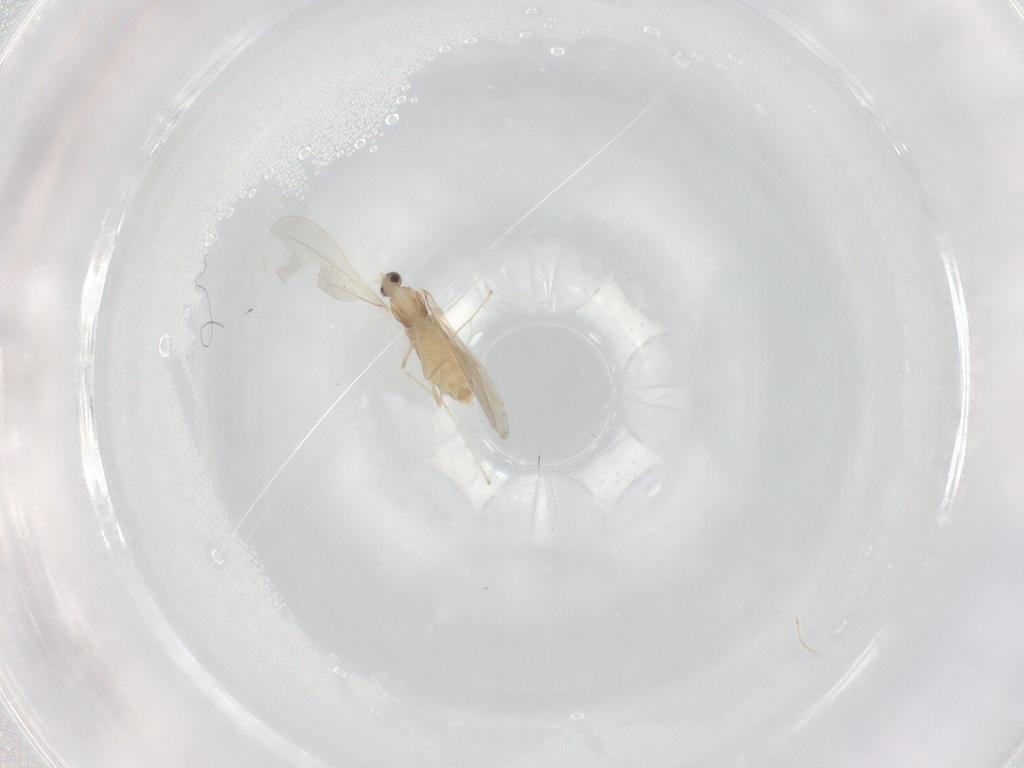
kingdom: Animalia
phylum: Arthropoda
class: Insecta
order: Diptera
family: Cecidomyiidae
